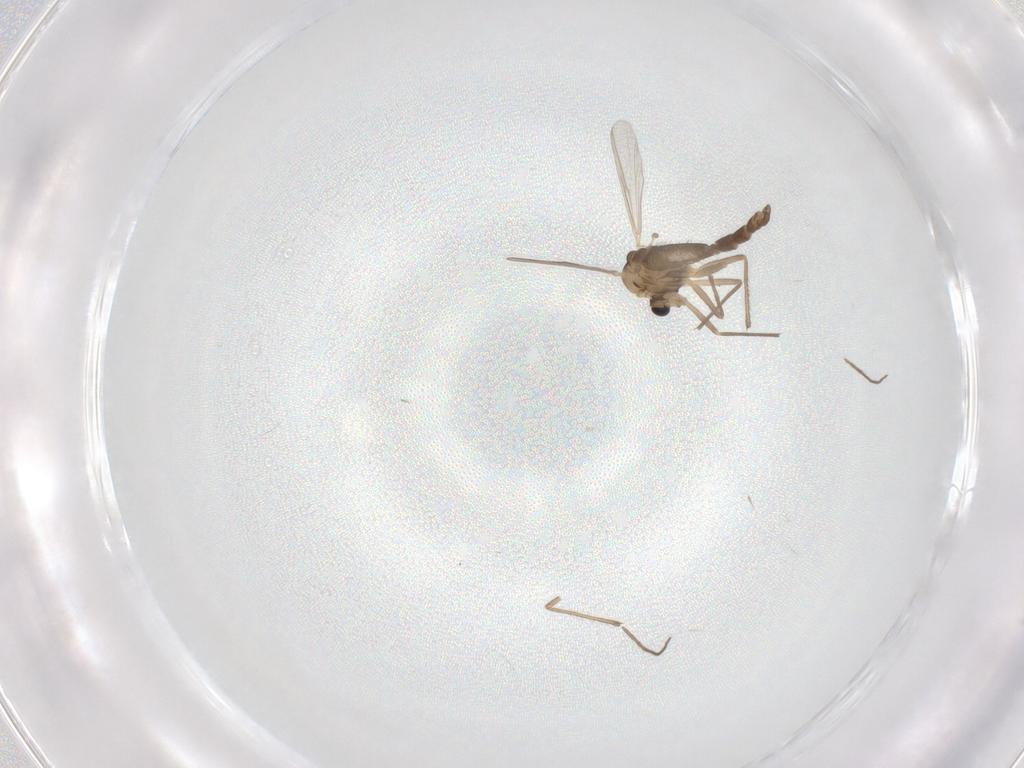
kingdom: Animalia
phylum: Arthropoda
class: Insecta
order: Diptera
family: Chironomidae
